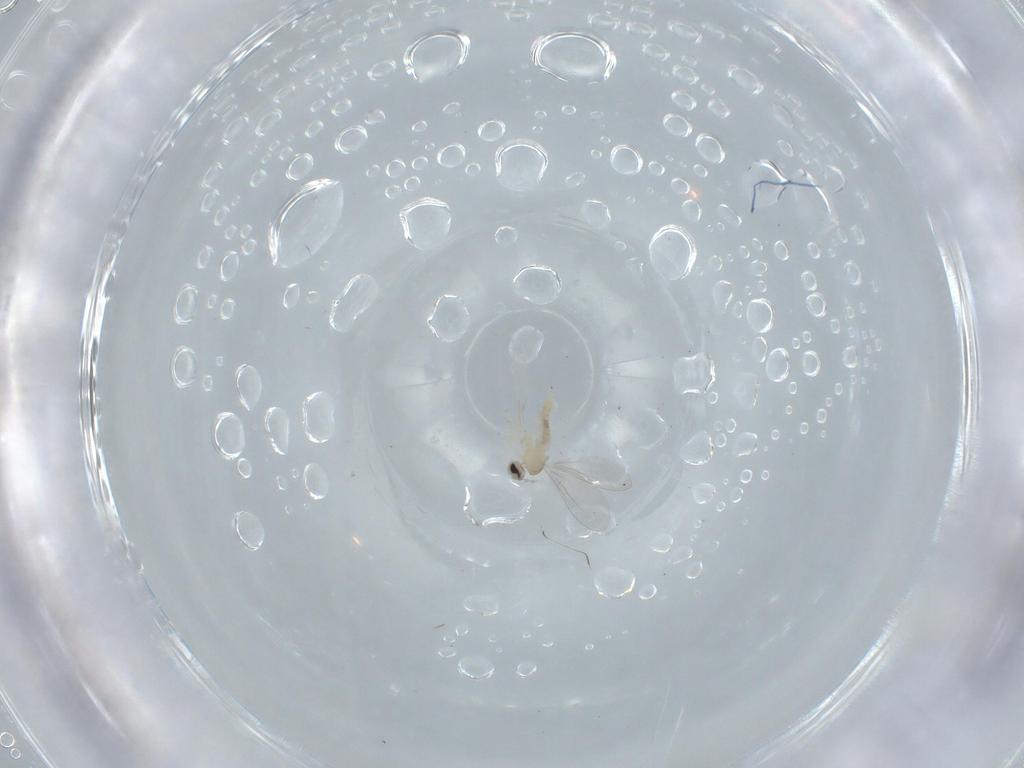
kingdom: Animalia
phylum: Arthropoda
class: Insecta
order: Diptera
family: Cecidomyiidae
